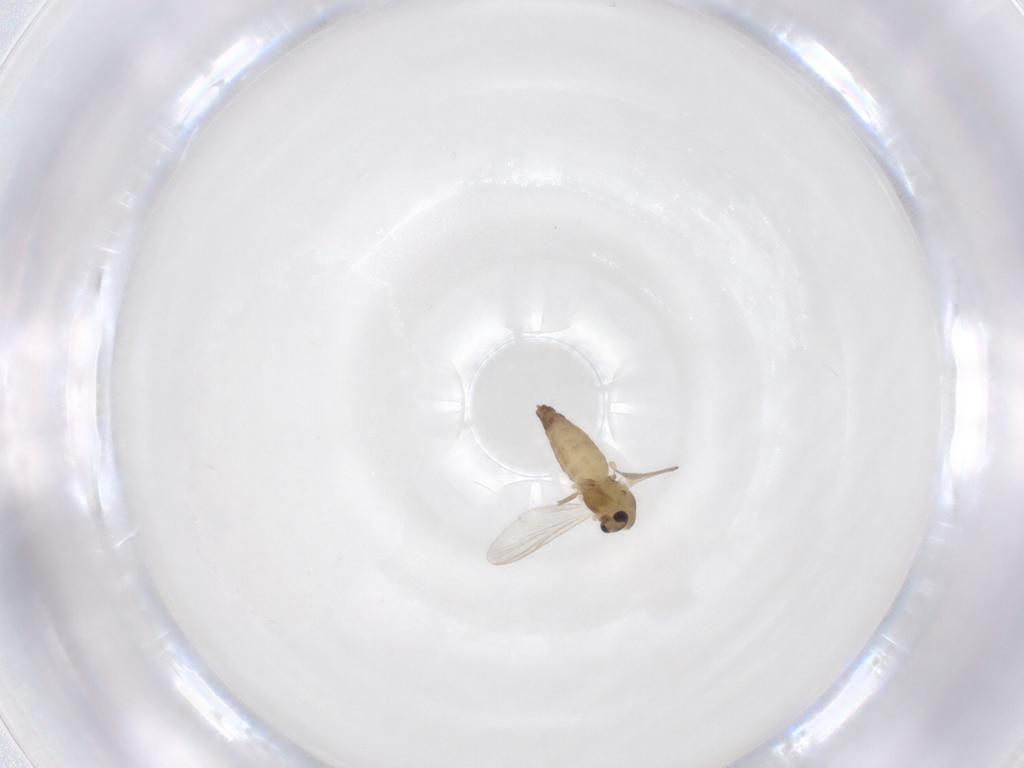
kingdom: Animalia
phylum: Arthropoda
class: Insecta
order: Diptera
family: Chironomidae
